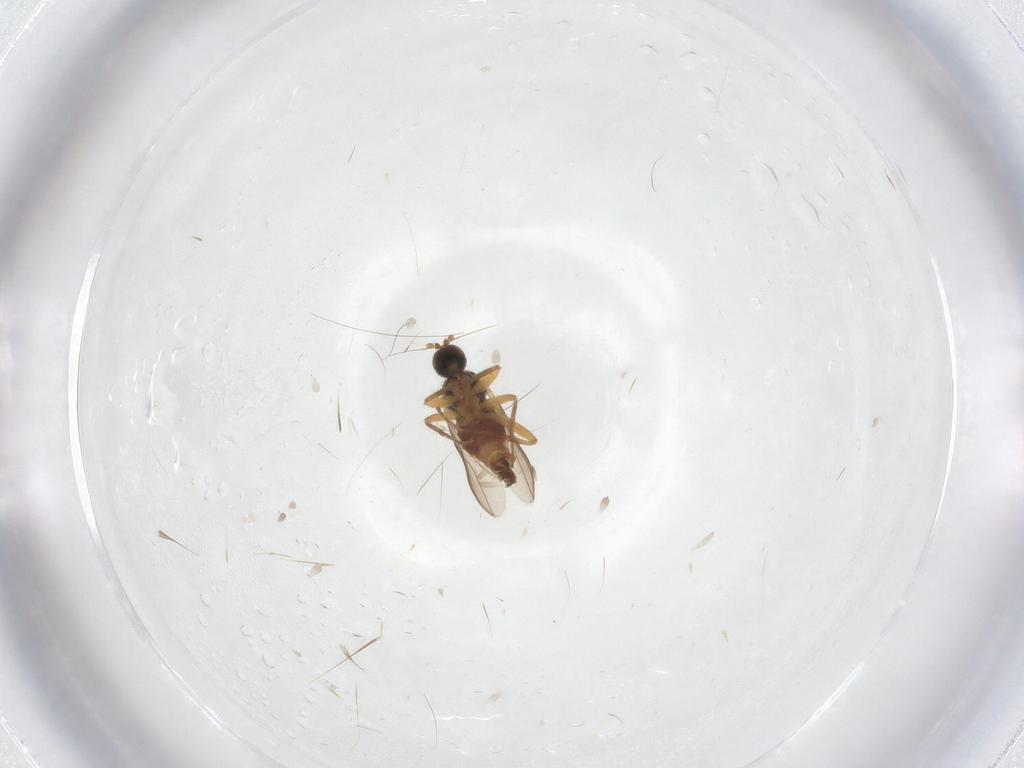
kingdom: Animalia
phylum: Arthropoda
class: Insecta
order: Diptera
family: Hybotidae
